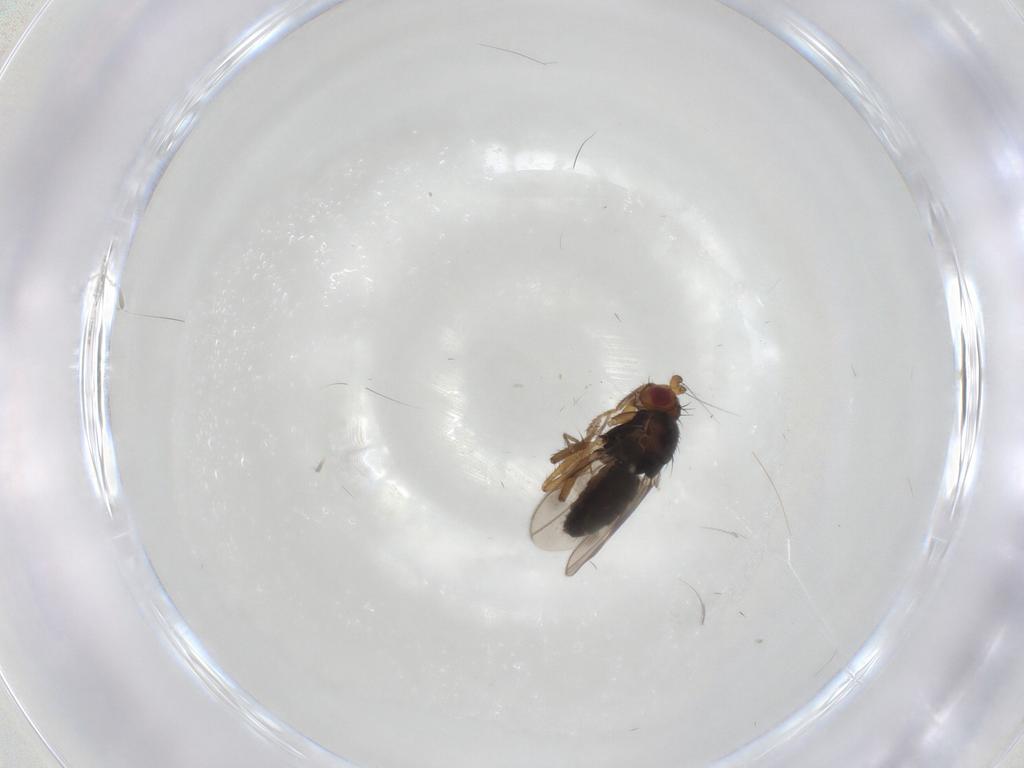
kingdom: Animalia
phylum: Arthropoda
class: Insecta
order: Diptera
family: Sphaeroceridae
